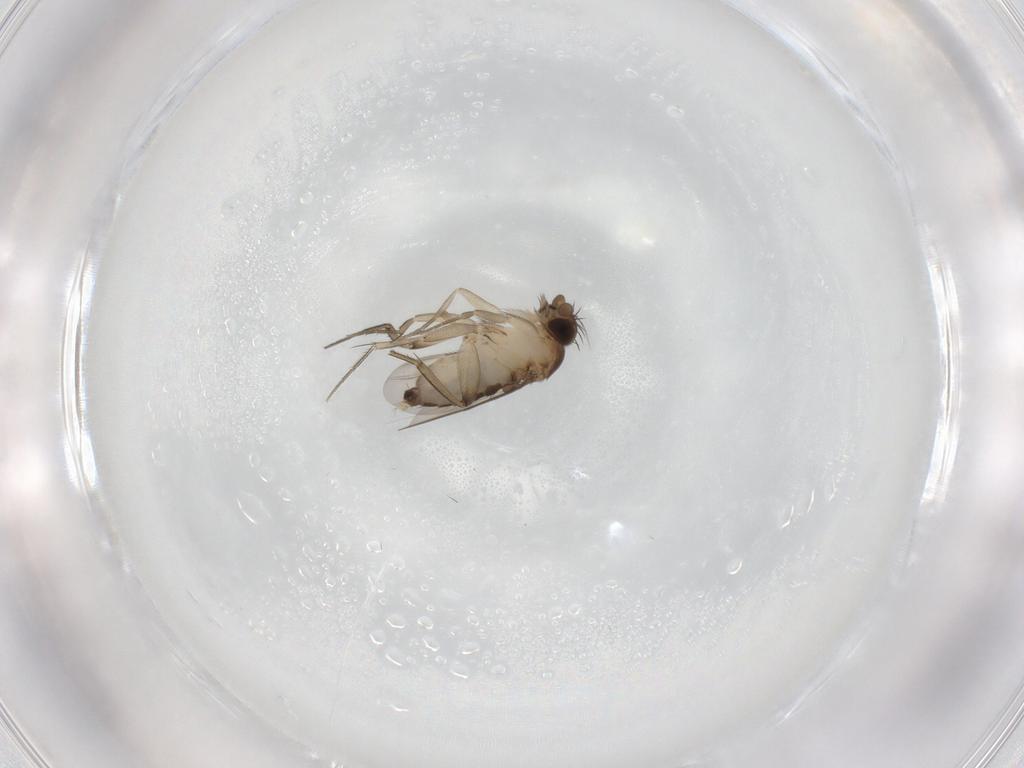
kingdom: Animalia
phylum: Arthropoda
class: Insecta
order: Diptera
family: Phoridae
